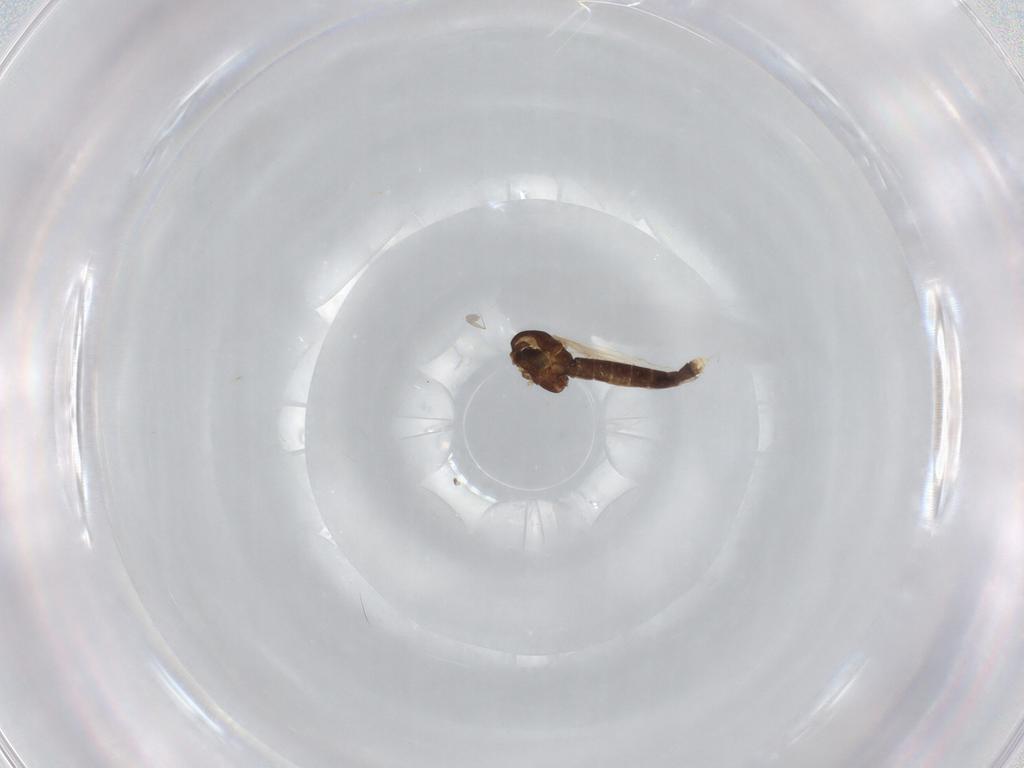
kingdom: Animalia
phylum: Arthropoda
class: Insecta
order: Diptera
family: Chironomidae
